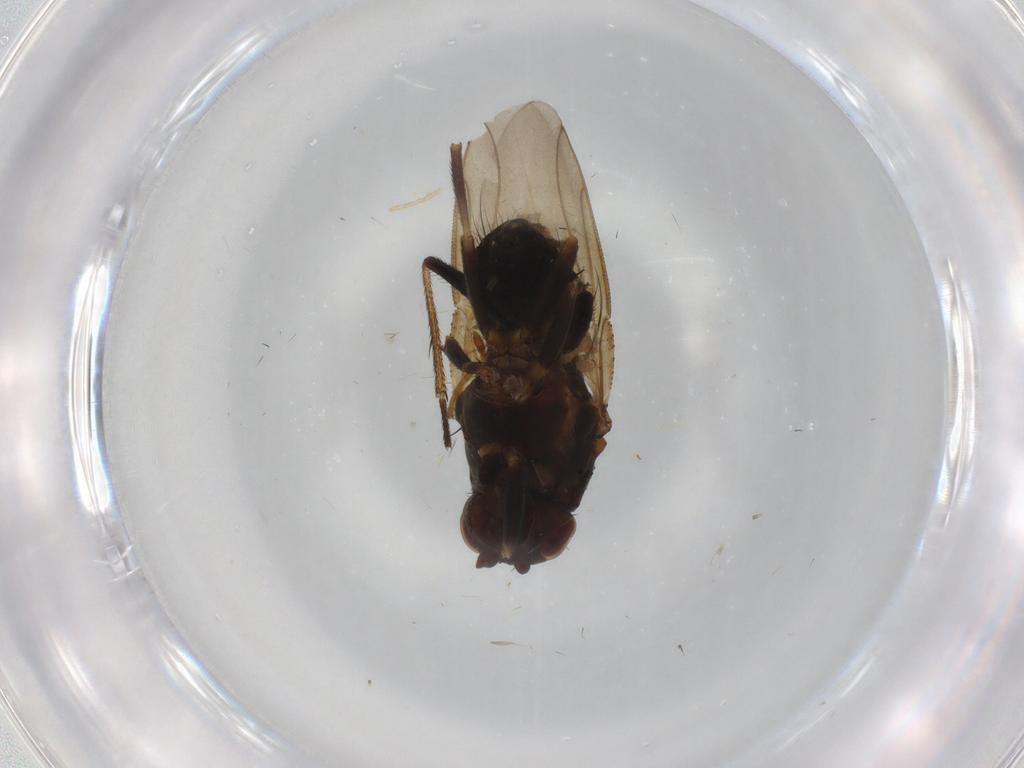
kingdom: Animalia
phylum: Arthropoda
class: Insecta
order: Diptera
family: Sphaeroceridae
